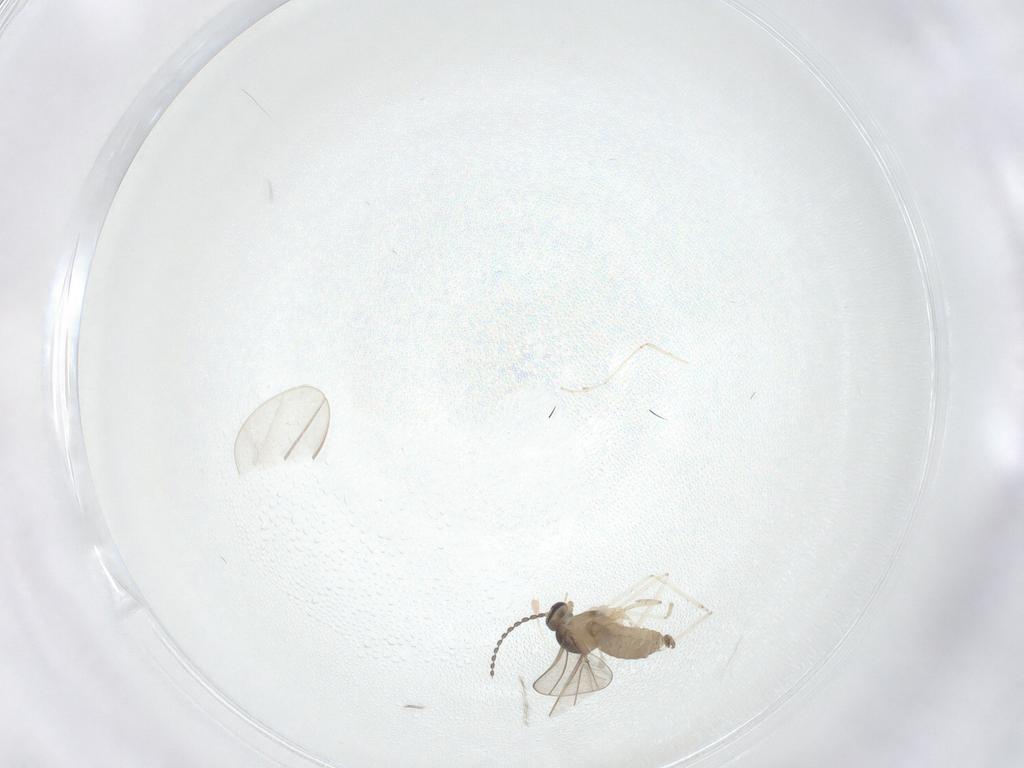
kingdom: Animalia
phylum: Arthropoda
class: Insecta
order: Diptera
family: Cecidomyiidae
